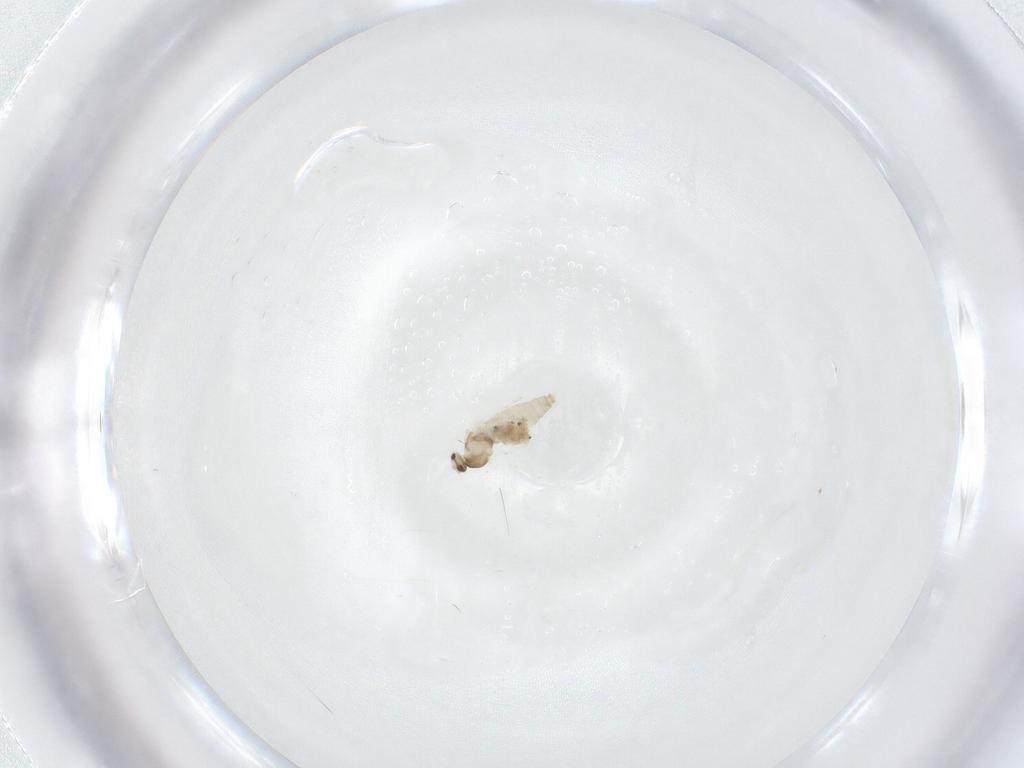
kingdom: Animalia
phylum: Arthropoda
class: Insecta
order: Diptera
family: Cecidomyiidae
